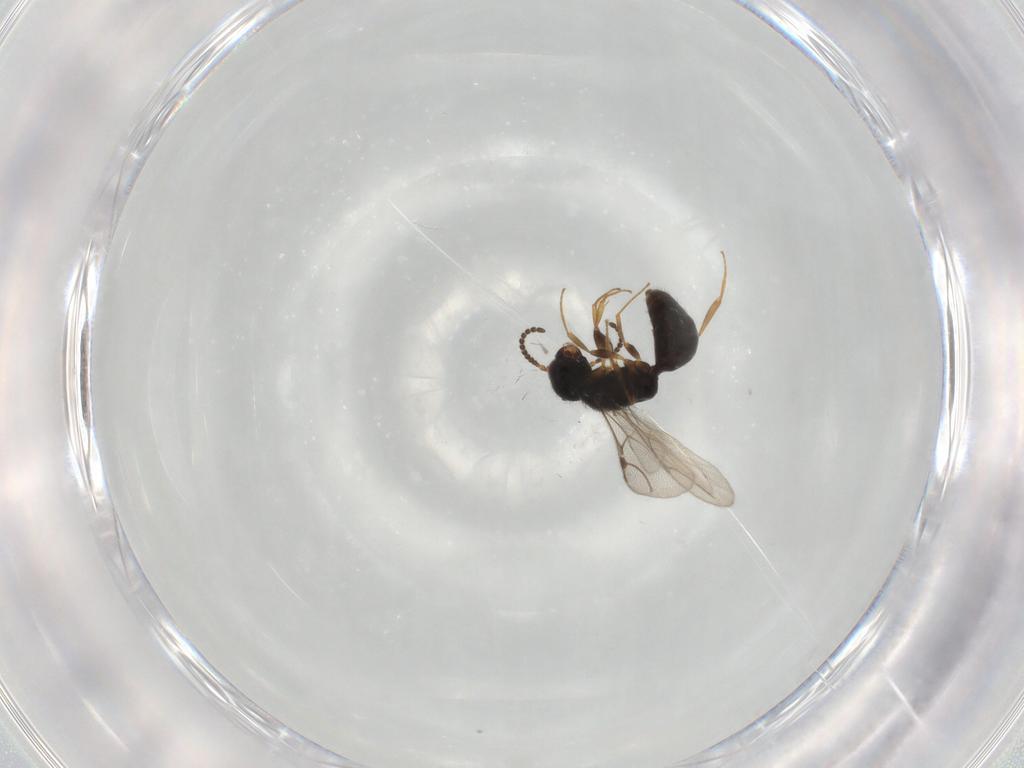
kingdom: Animalia
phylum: Arthropoda
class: Insecta
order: Hymenoptera
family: Bethylidae
